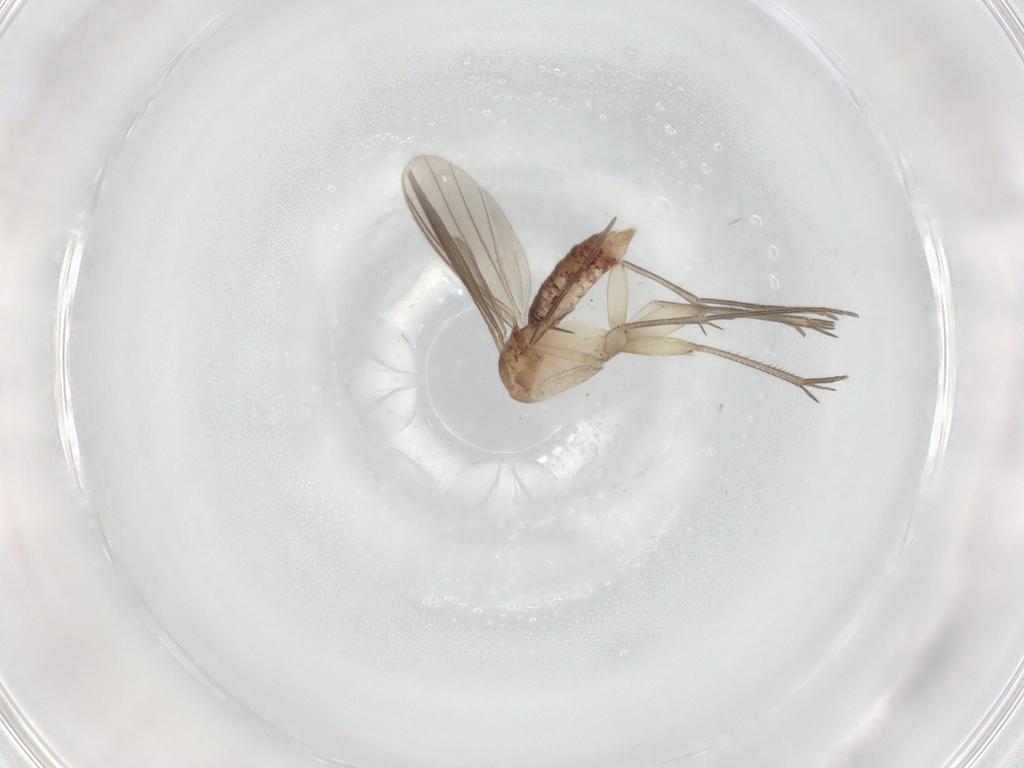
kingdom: Animalia
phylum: Arthropoda
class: Insecta
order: Diptera
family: Sciaridae
